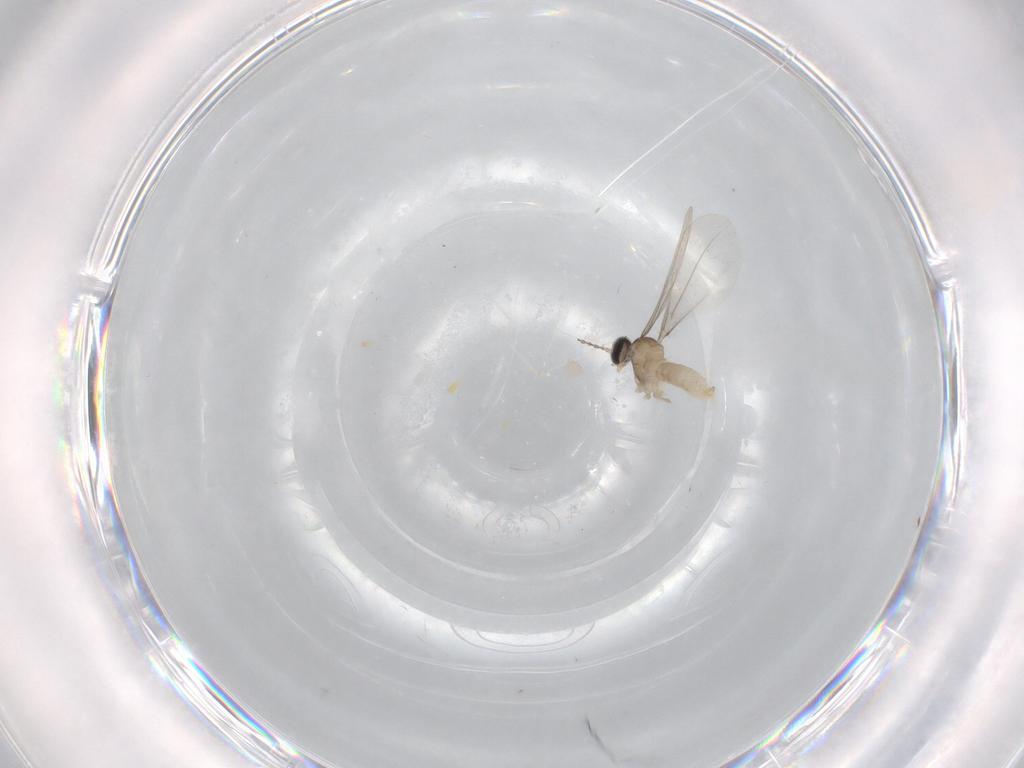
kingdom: Animalia
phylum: Arthropoda
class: Insecta
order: Diptera
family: Cecidomyiidae
